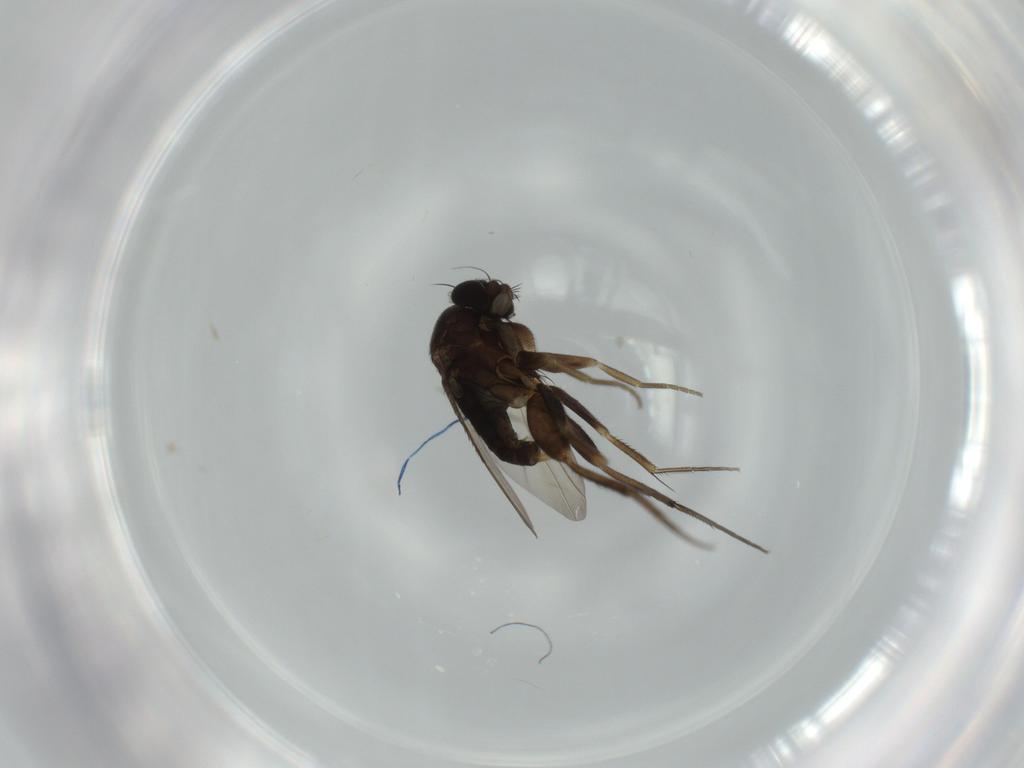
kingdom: Animalia
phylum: Arthropoda
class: Insecta
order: Diptera
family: Phoridae
